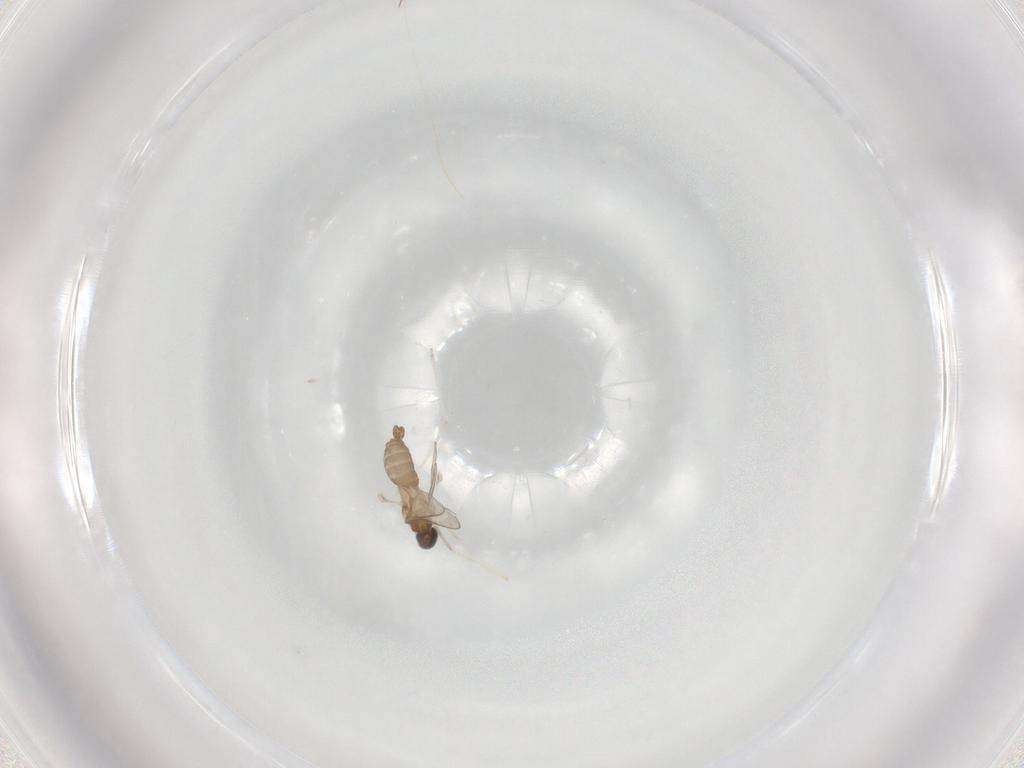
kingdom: Animalia
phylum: Arthropoda
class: Insecta
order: Diptera
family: Cecidomyiidae
